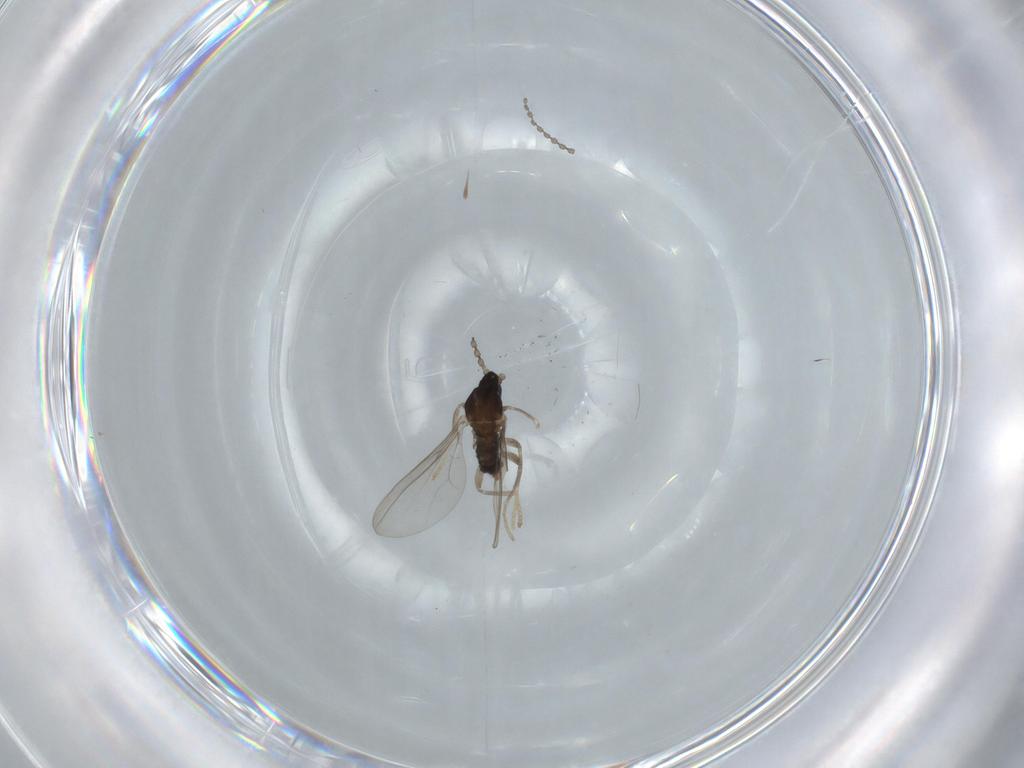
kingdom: Animalia
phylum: Arthropoda
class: Insecta
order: Diptera
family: Cecidomyiidae
